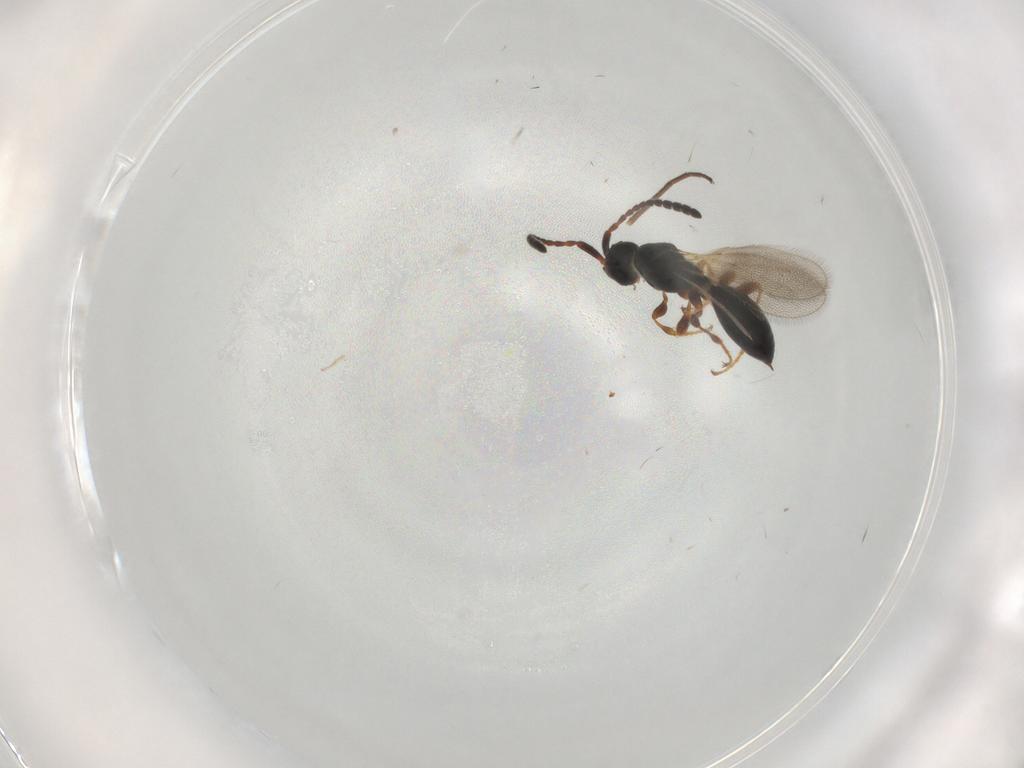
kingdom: Animalia
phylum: Arthropoda
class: Insecta
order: Hymenoptera
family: Diapriidae
